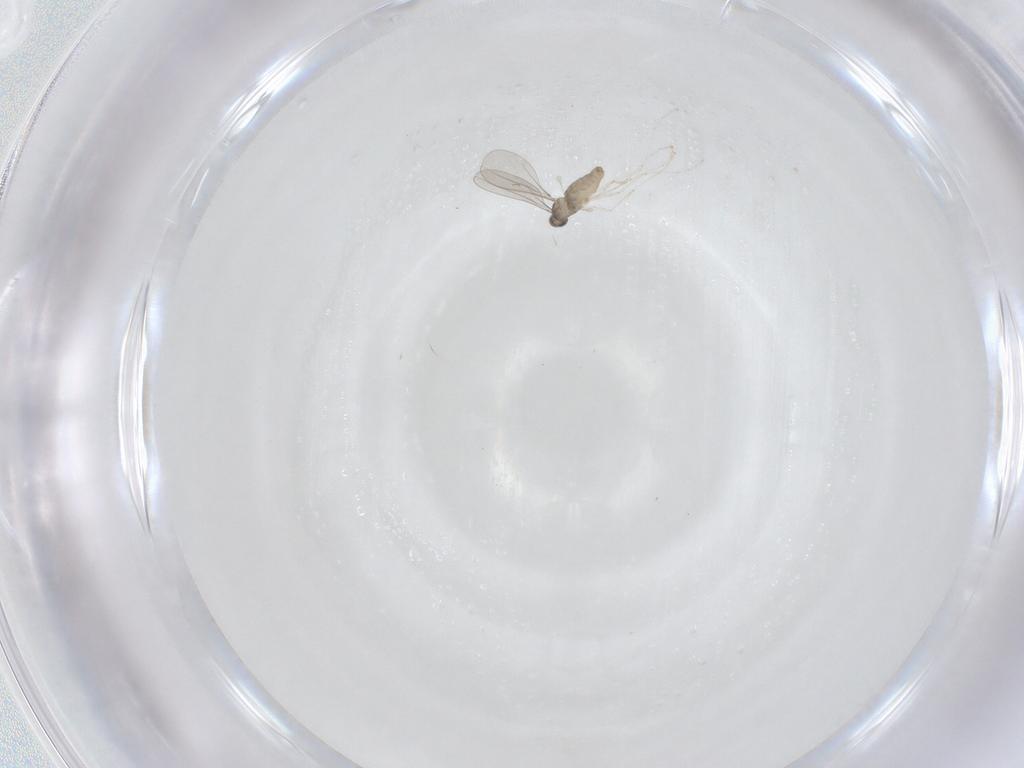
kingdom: Animalia
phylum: Arthropoda
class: Insecta
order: Diptera
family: Cecidomyiidae
